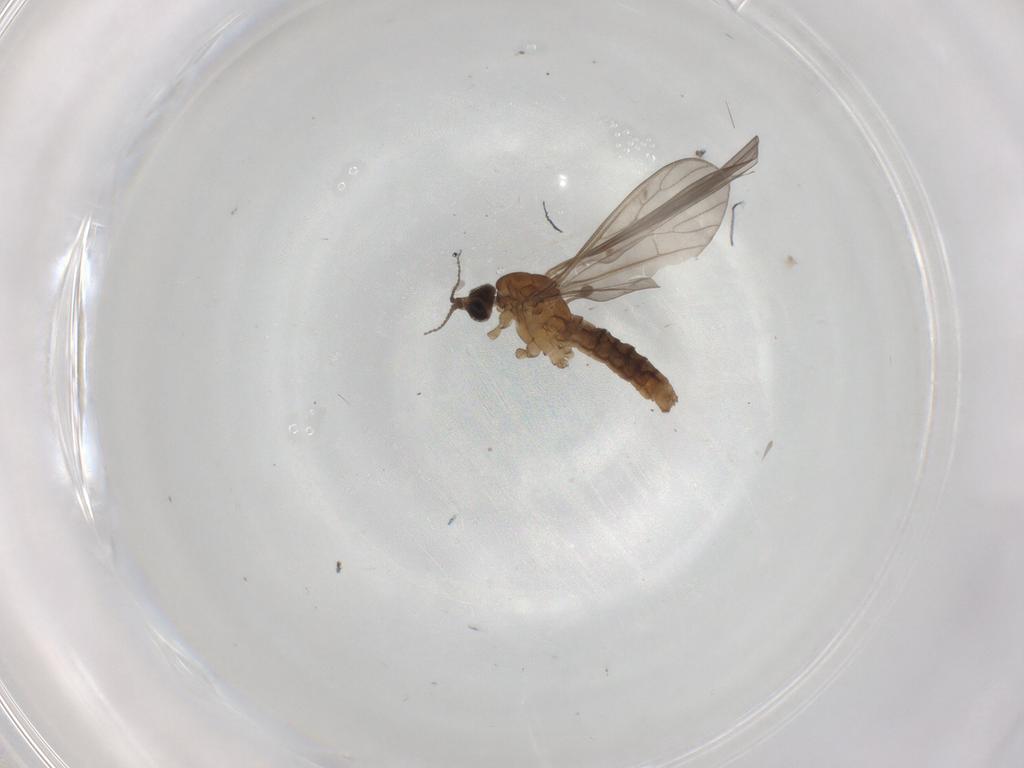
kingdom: Animalia
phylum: Arthropoda
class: Insecta
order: Diptera
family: Limoniidae
